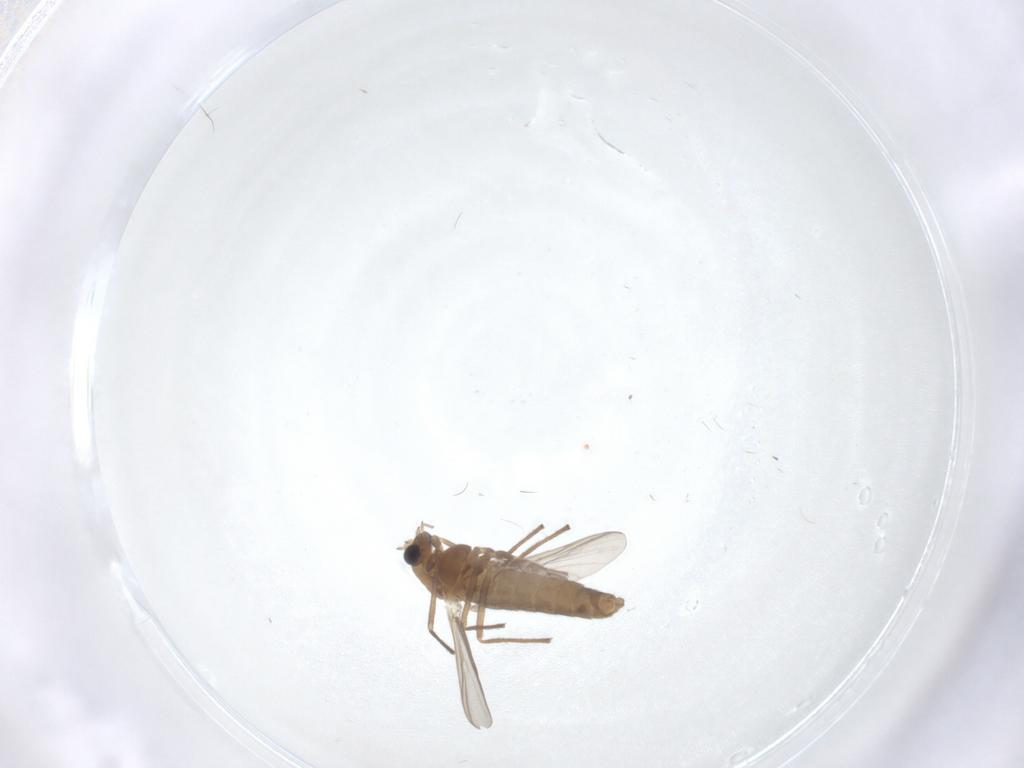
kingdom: Animalia
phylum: Arthropoda
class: Insecta
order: Diptera
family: Chironomidae
